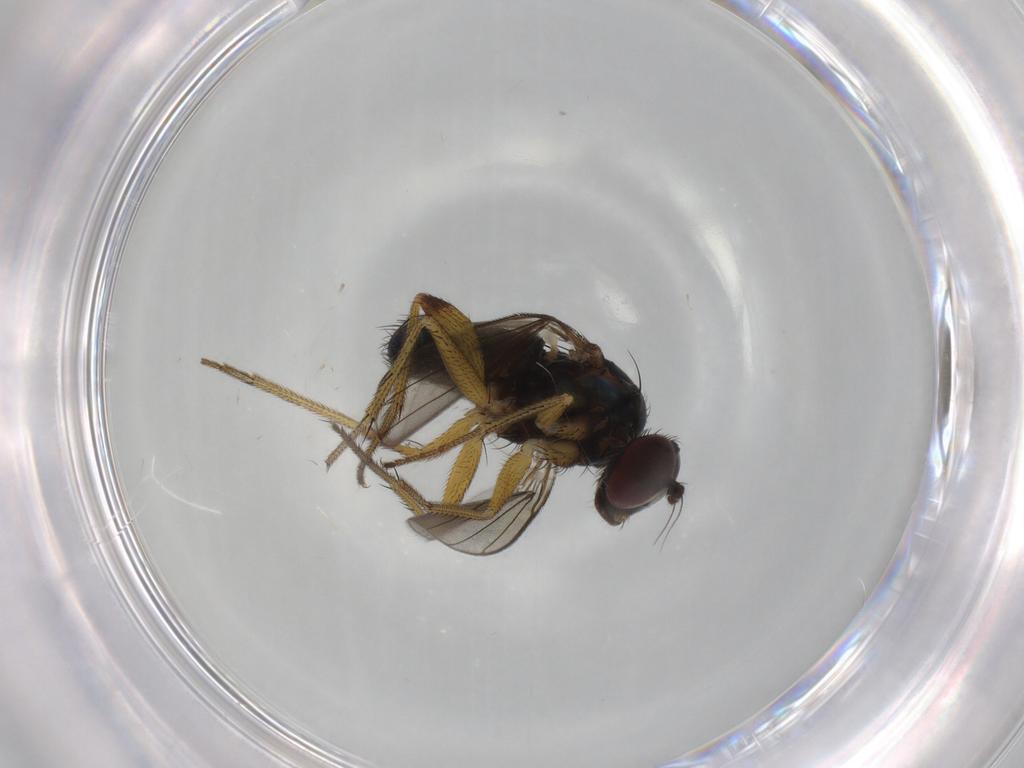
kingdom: Animalia
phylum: Arthropoda
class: Insecta
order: Diptera
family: Dolichopodidae
